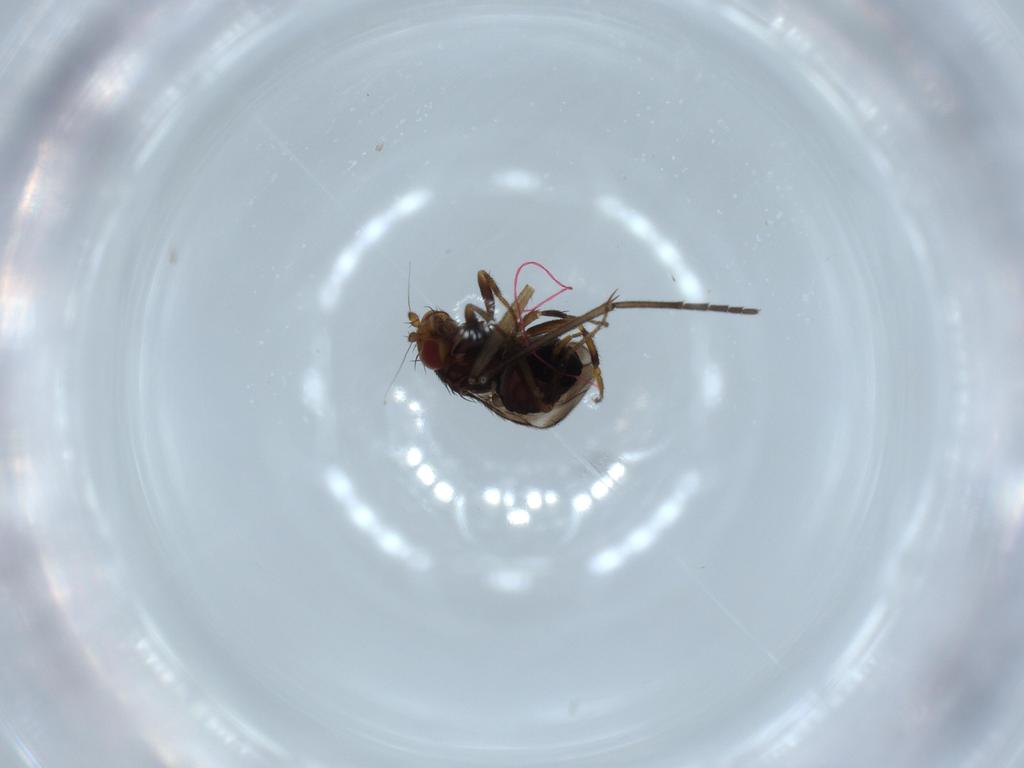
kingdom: Animalia
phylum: Arthropoda
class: Insecta
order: Diptera
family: Sphaeroceridae
